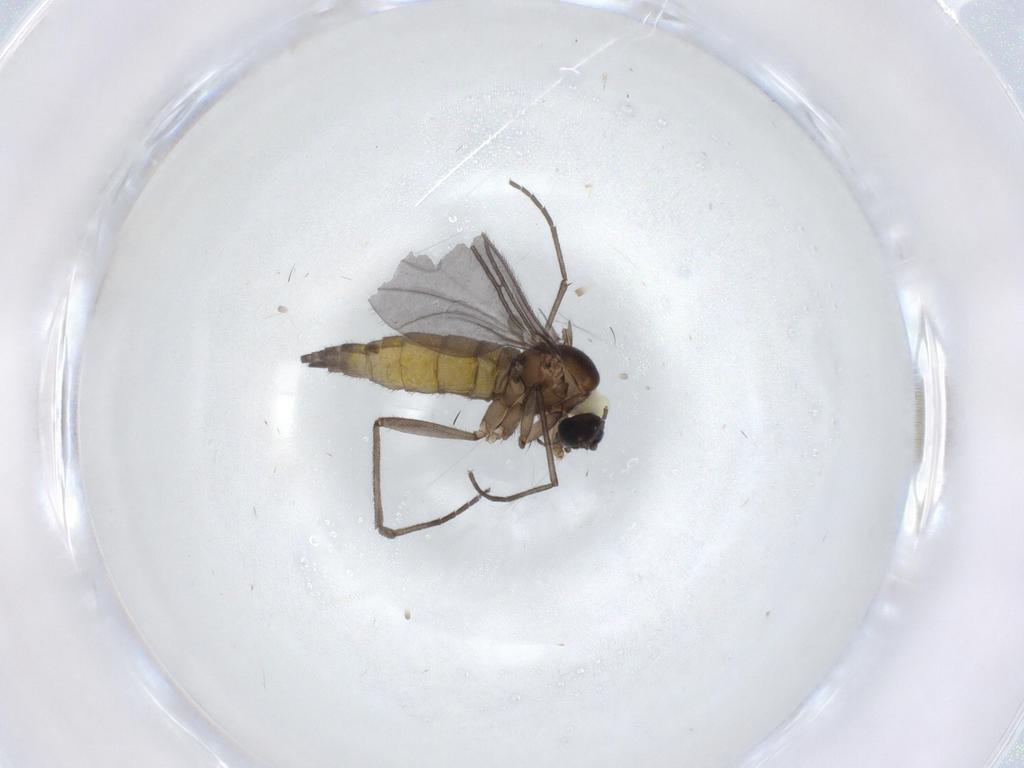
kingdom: Animalia
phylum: Arthropoda
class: Insecta
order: Diptera
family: Sciaridae
